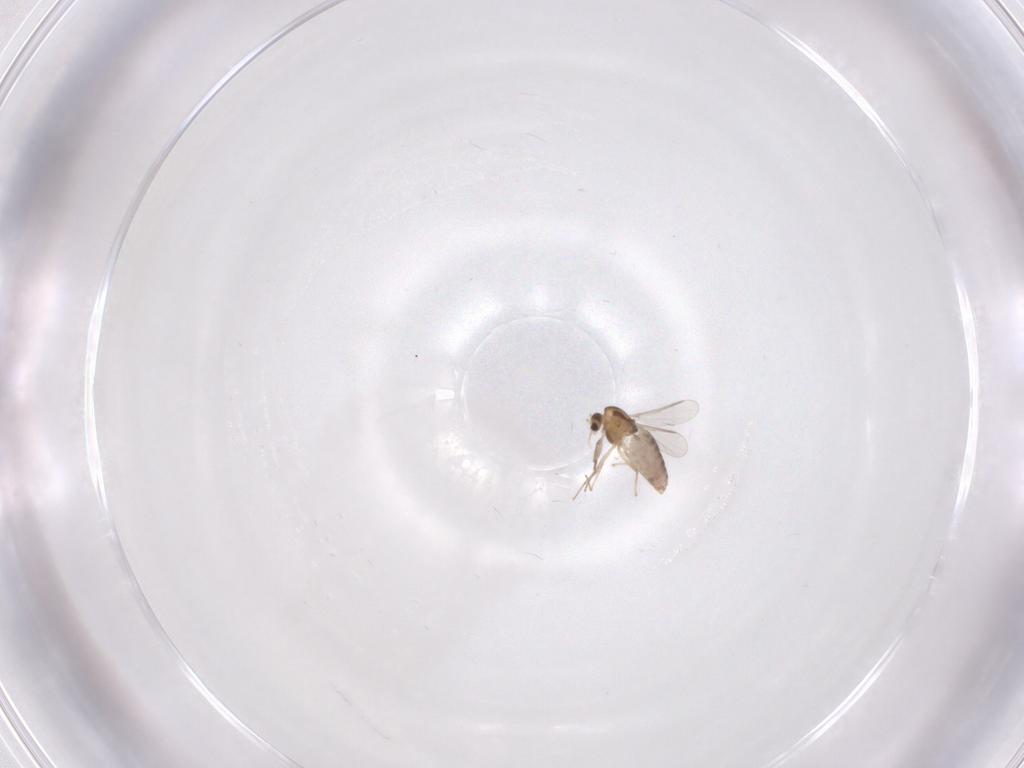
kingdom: Animalia
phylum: Arthropoda
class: Insecta
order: Diptera
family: Chironomidae
